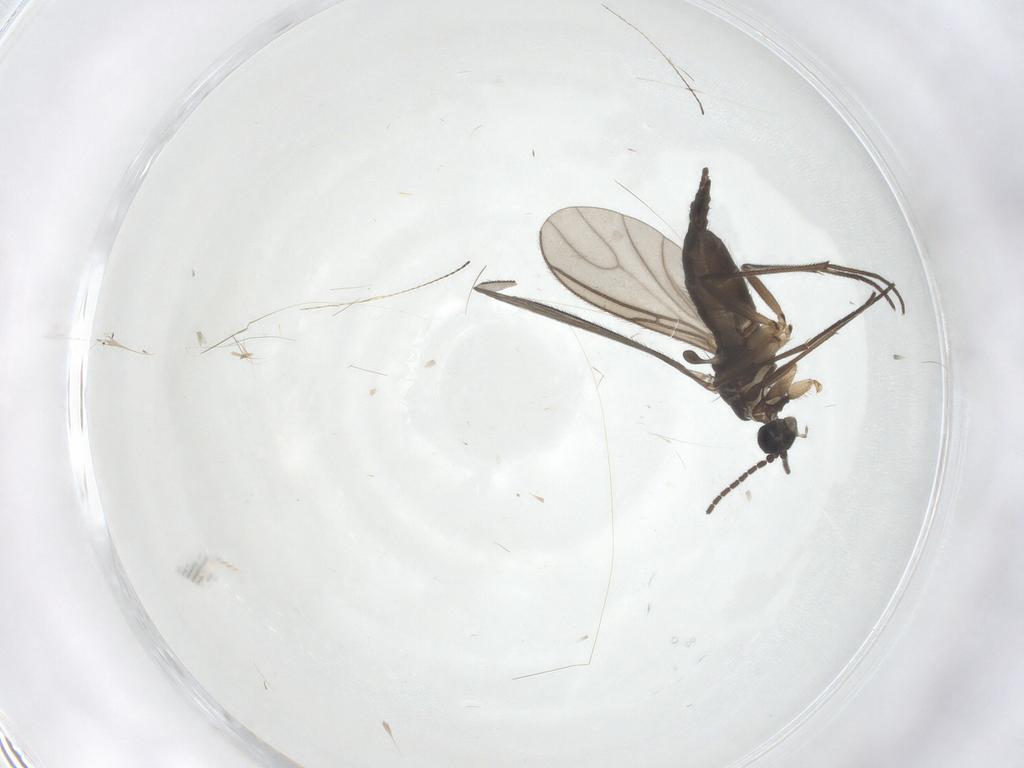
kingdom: Animalia
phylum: Arthropoda
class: Insecta
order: Diptera
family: Sciaridae
